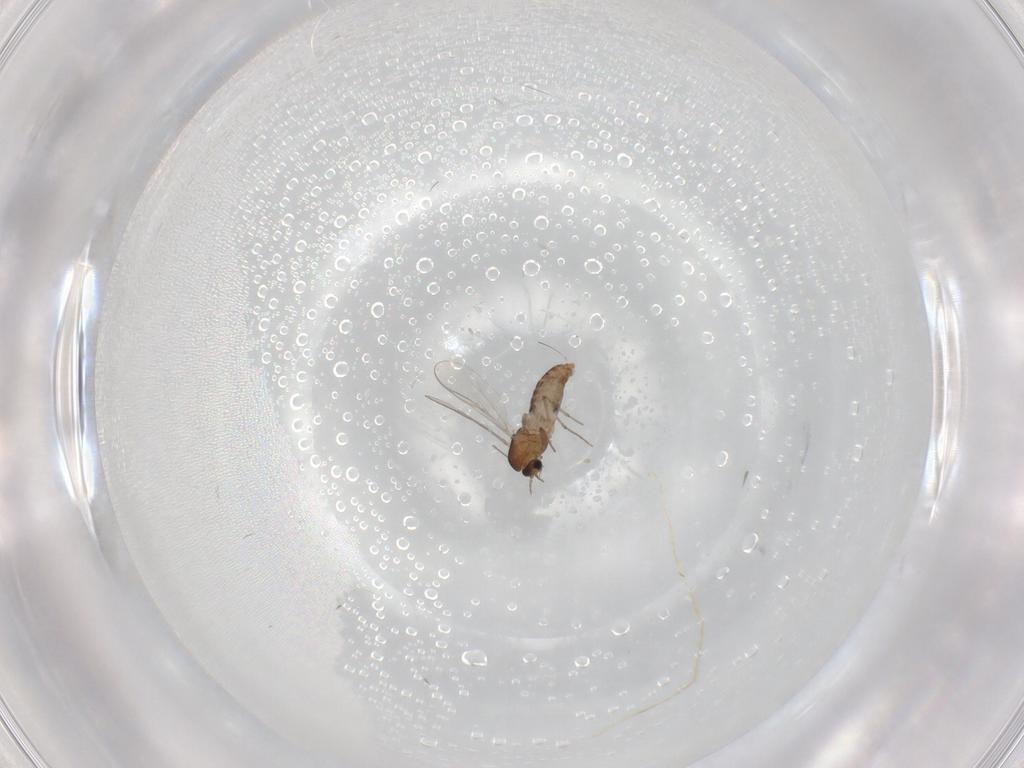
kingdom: Animalia
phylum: Arthropoda
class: Insecta
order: Diptera
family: Chironomidae
